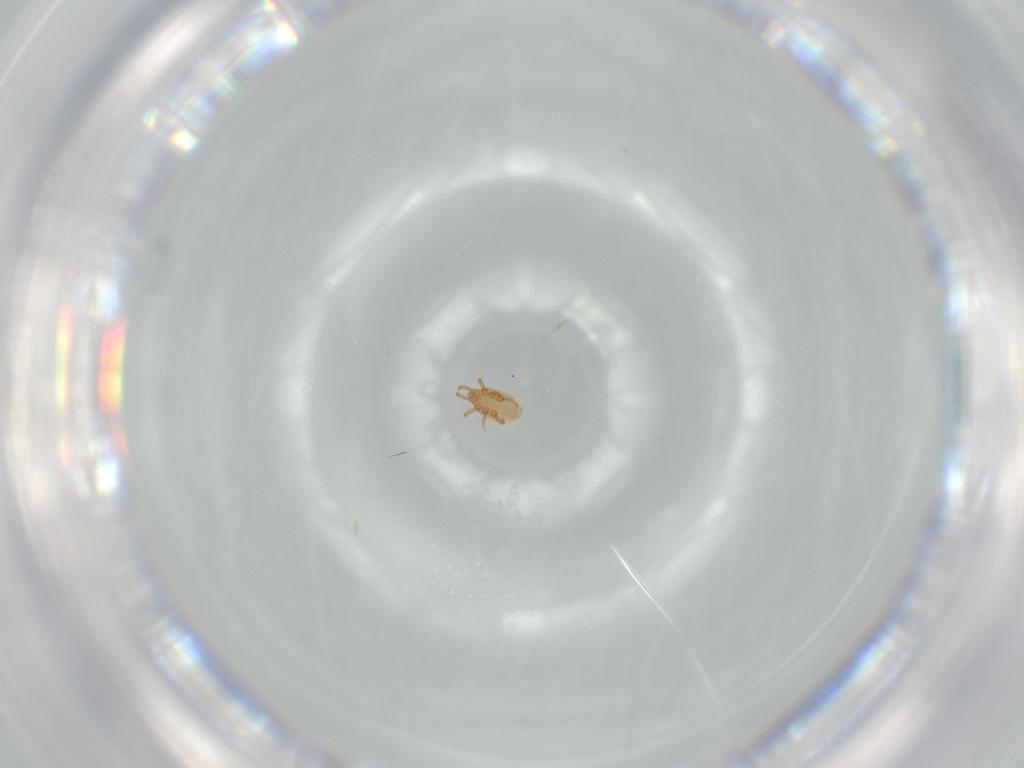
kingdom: Animalia
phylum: Arthropoda
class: Arachnida
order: Mesostigmata
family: Dinychidae
